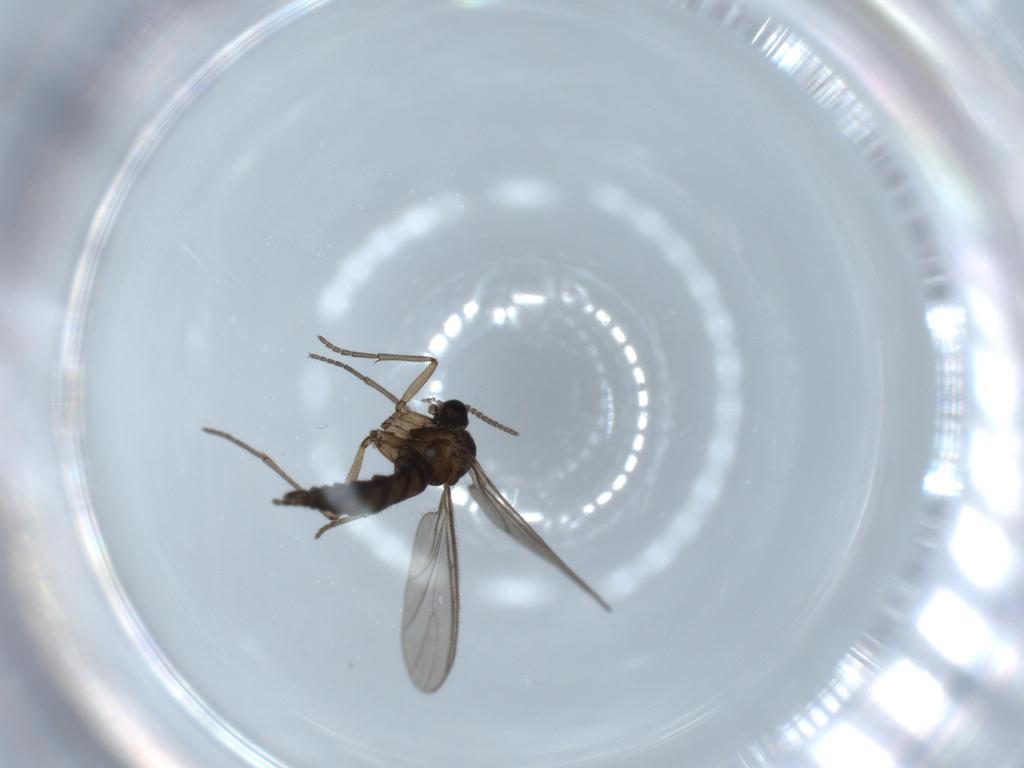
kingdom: Animalia
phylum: Arthropoda
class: Insecta
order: Diptera
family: Sciaridae
